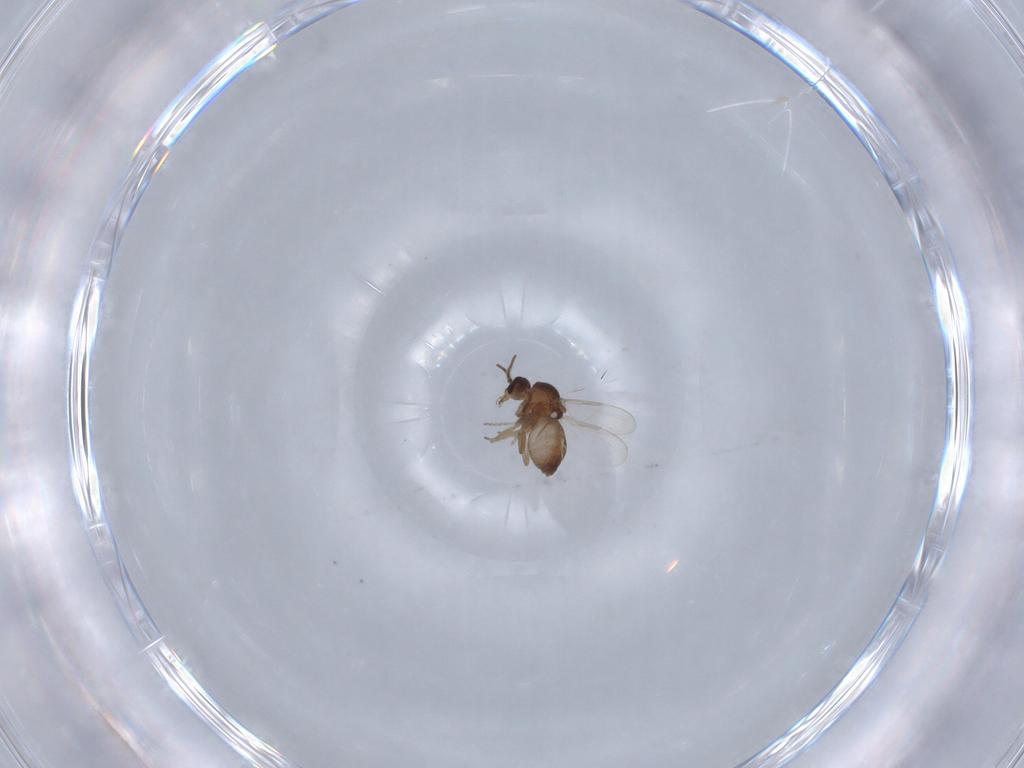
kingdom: Animalia
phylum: Arthropoda
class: Insecta
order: Diptera
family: Ceratopogonidae
